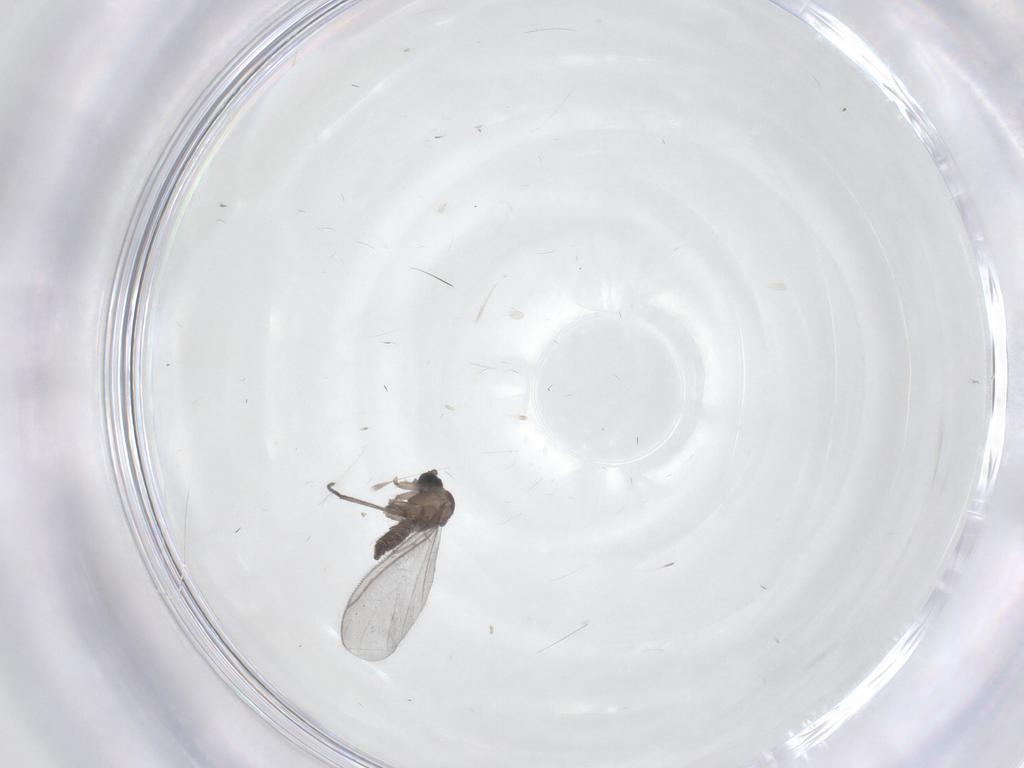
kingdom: Animalia
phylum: Arthropoda
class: Insecta
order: Diptera
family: Sciaridae
